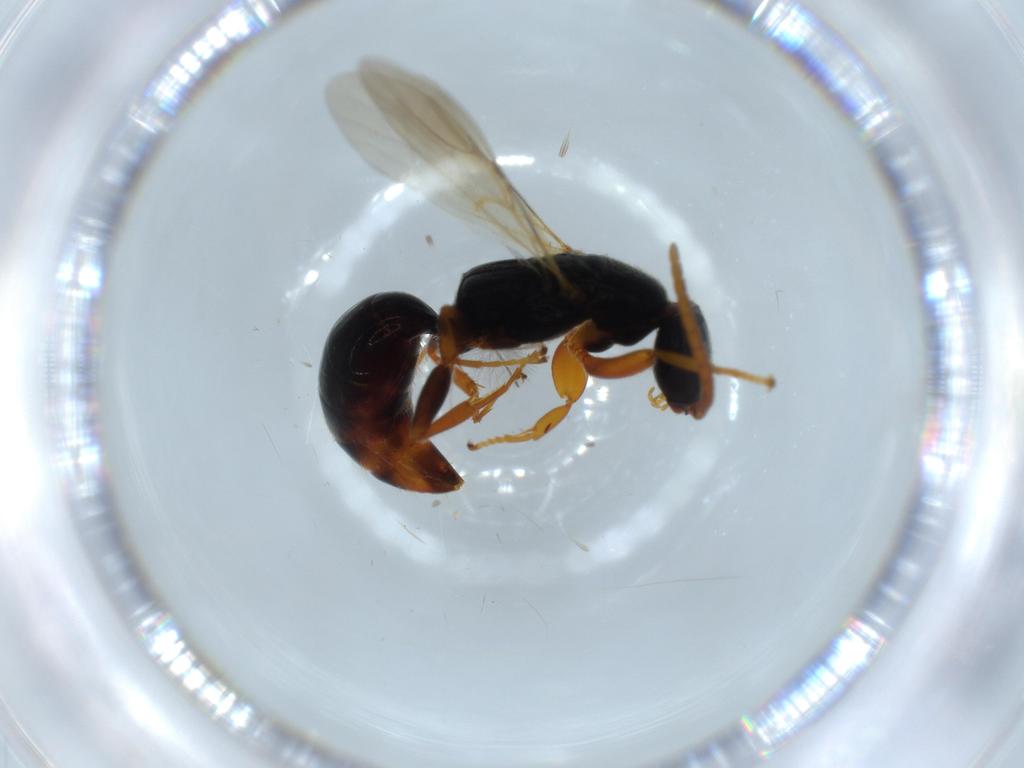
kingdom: Animalia
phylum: Arthropoda
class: Insecta
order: Hymenoptera
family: Bethylidae
